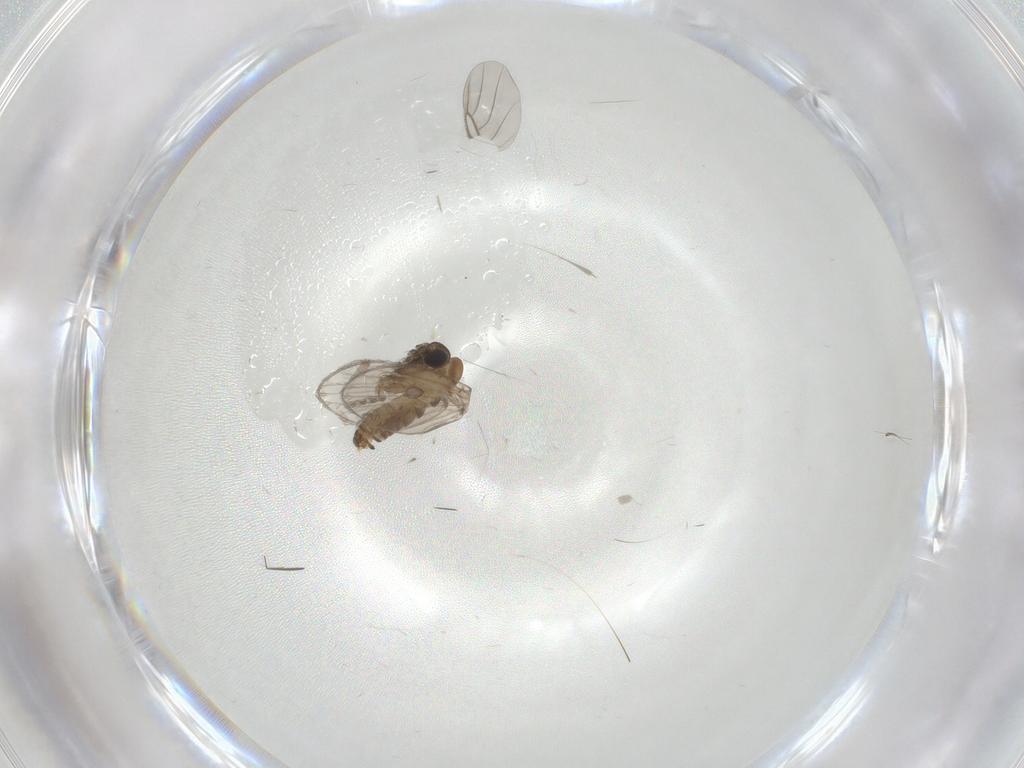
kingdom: Animalia
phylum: Arthropoda
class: Insecta
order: Diptera
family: Psychodidae
